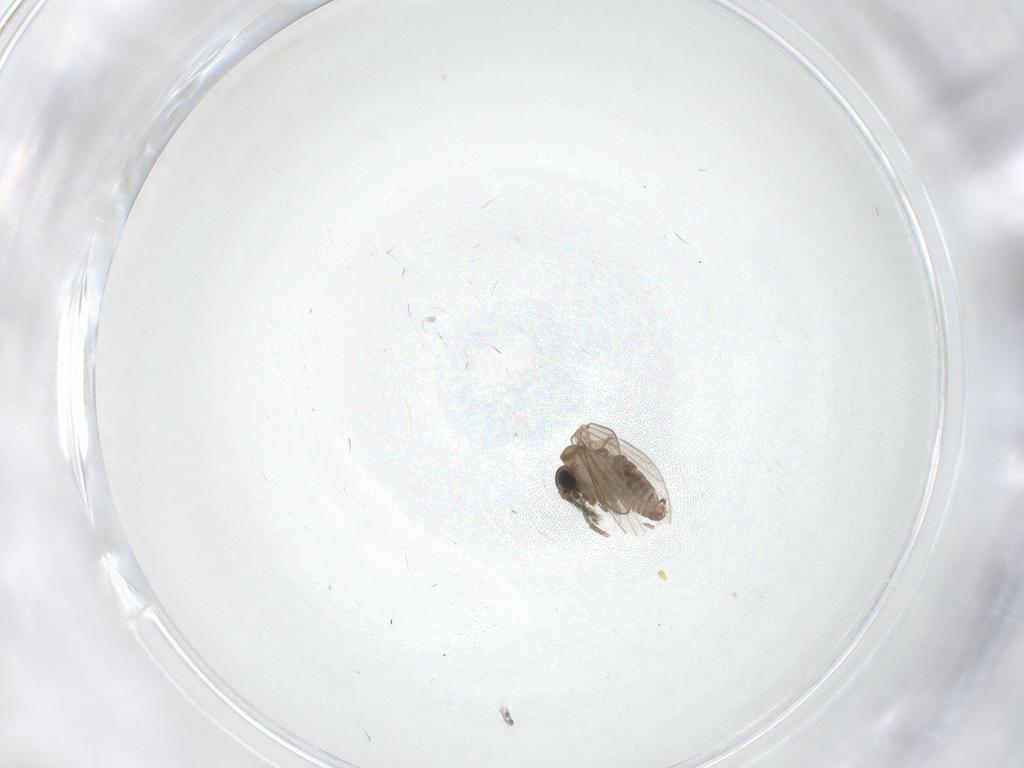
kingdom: Animalia
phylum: Arthropoda
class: Insecta
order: Diptera
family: Psychodidae
